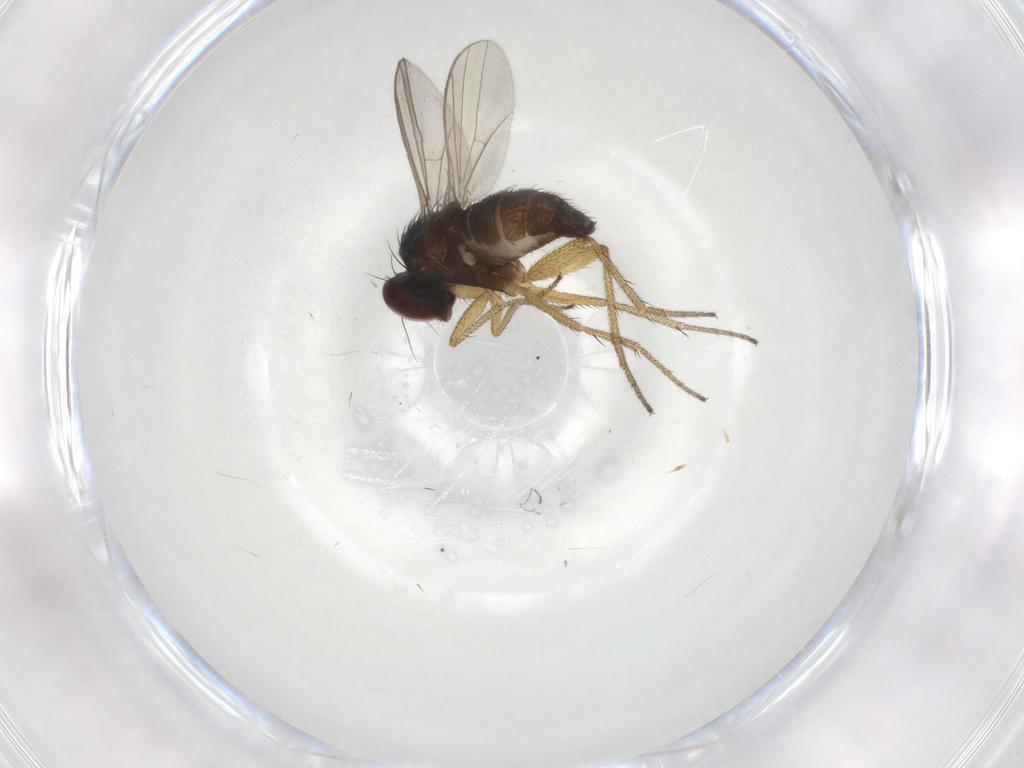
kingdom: Animalia
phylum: Arthropoda
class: Insecta
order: Diptera
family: Dolichopodidae
